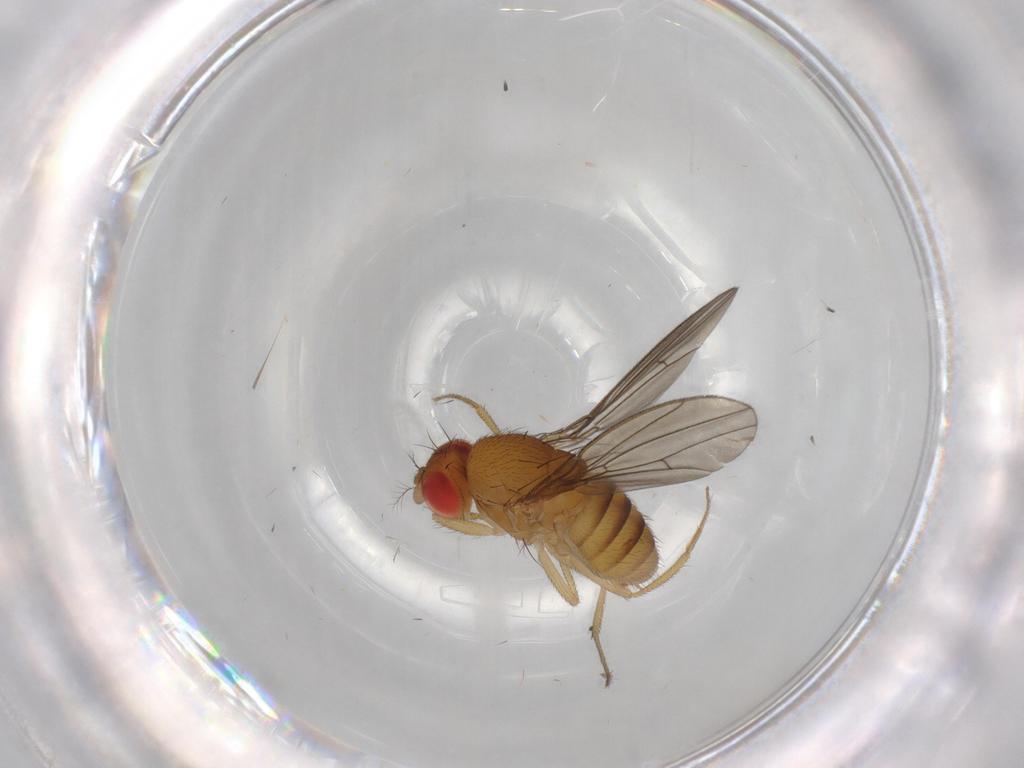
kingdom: Animalia
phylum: Arthropoda
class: Insecta
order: Diptera
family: Drosophilidae
